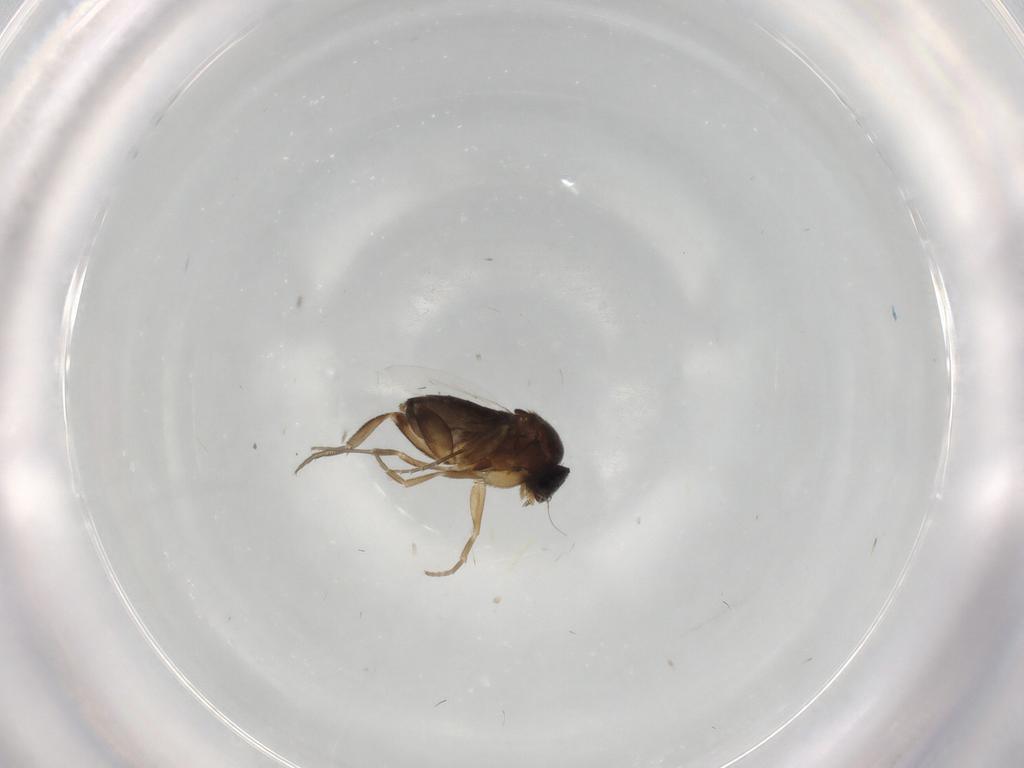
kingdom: Animalia
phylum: Arthropoda
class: Insecta
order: Diptera
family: Phoridae
